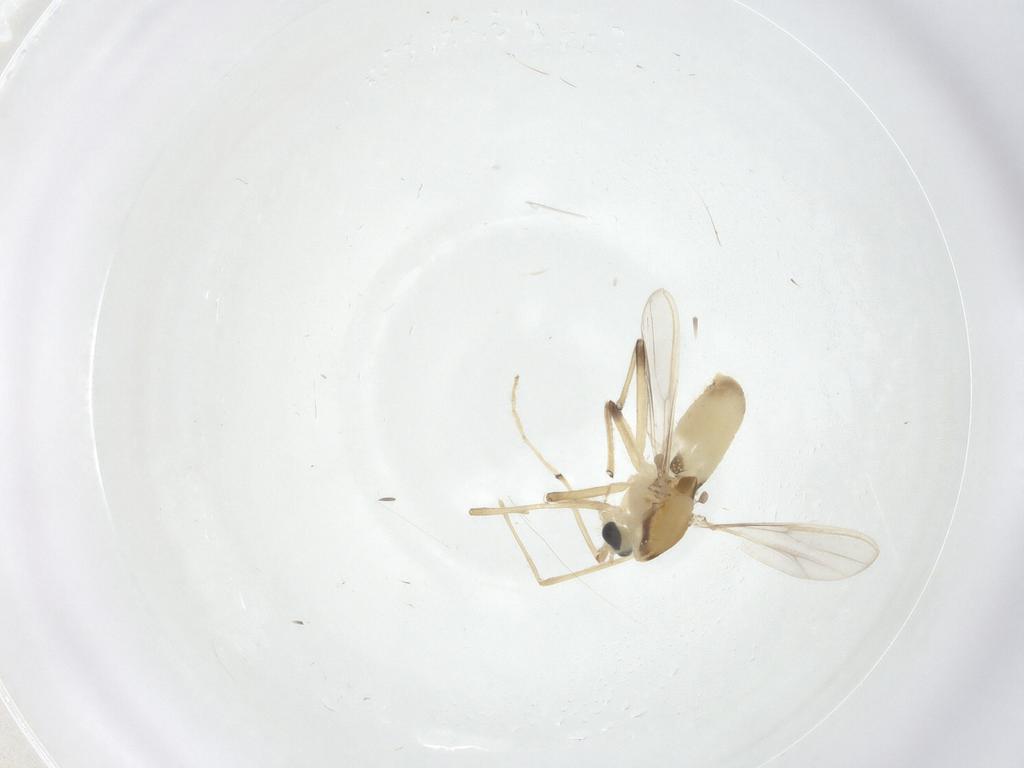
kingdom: Animalia
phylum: Arthropoda
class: Insecta
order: Diptera
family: Chironomidae
